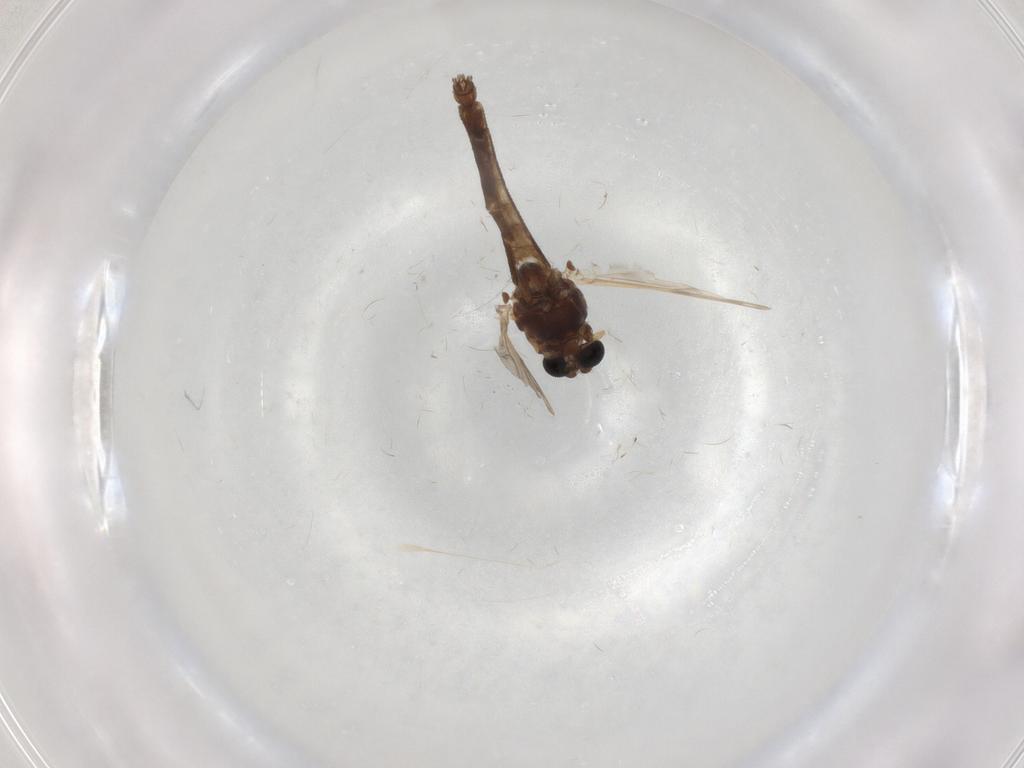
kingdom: Animalia
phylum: Arthropoda
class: Insecta
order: Diptera
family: Chironomidae
